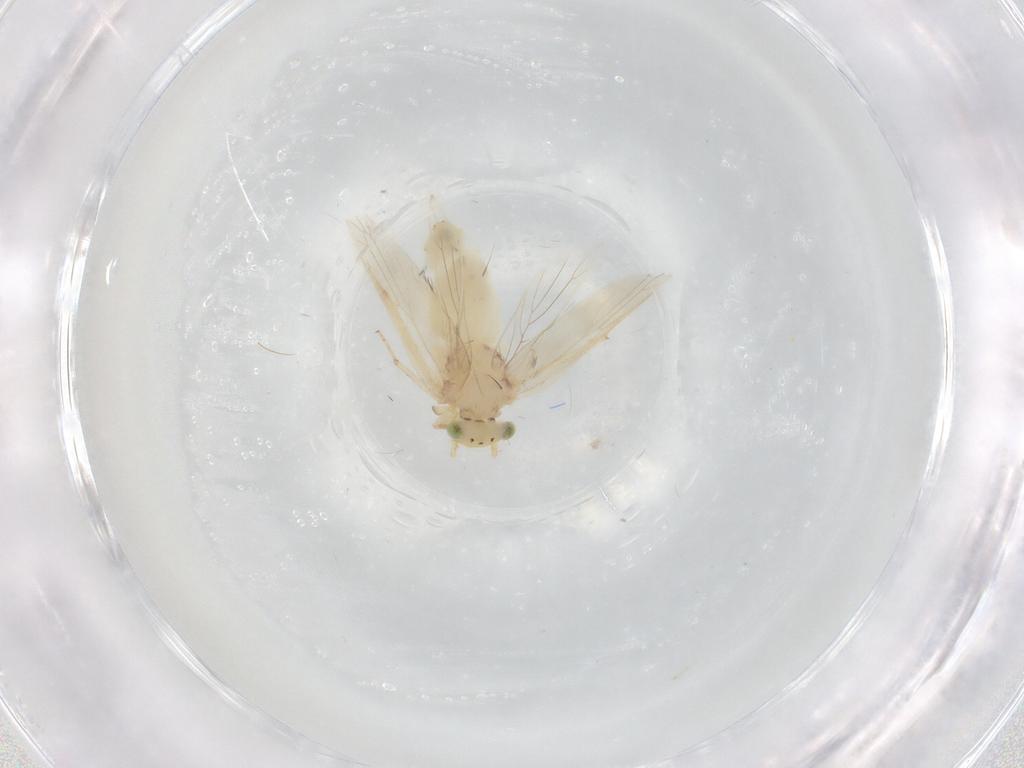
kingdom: Animalia
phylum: Arthropoda
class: Insecta
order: Psocodea
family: Lepidopsocidae
